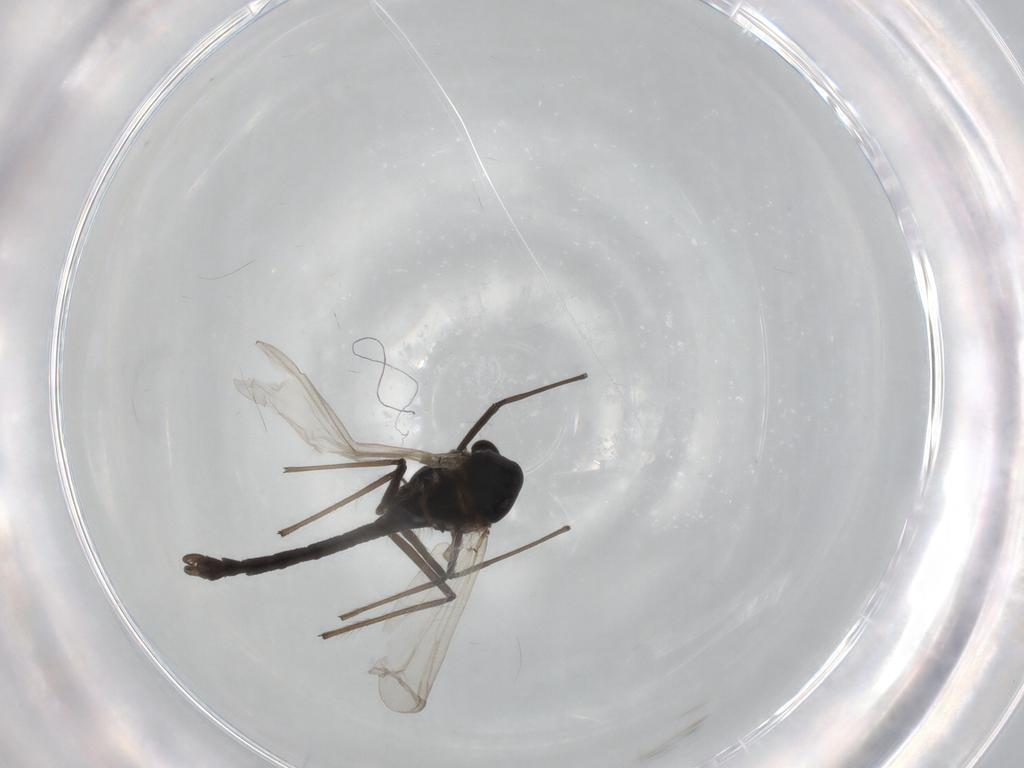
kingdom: Animalia
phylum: Arthropoda
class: Insecta
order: Diptera
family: Chironomidae
